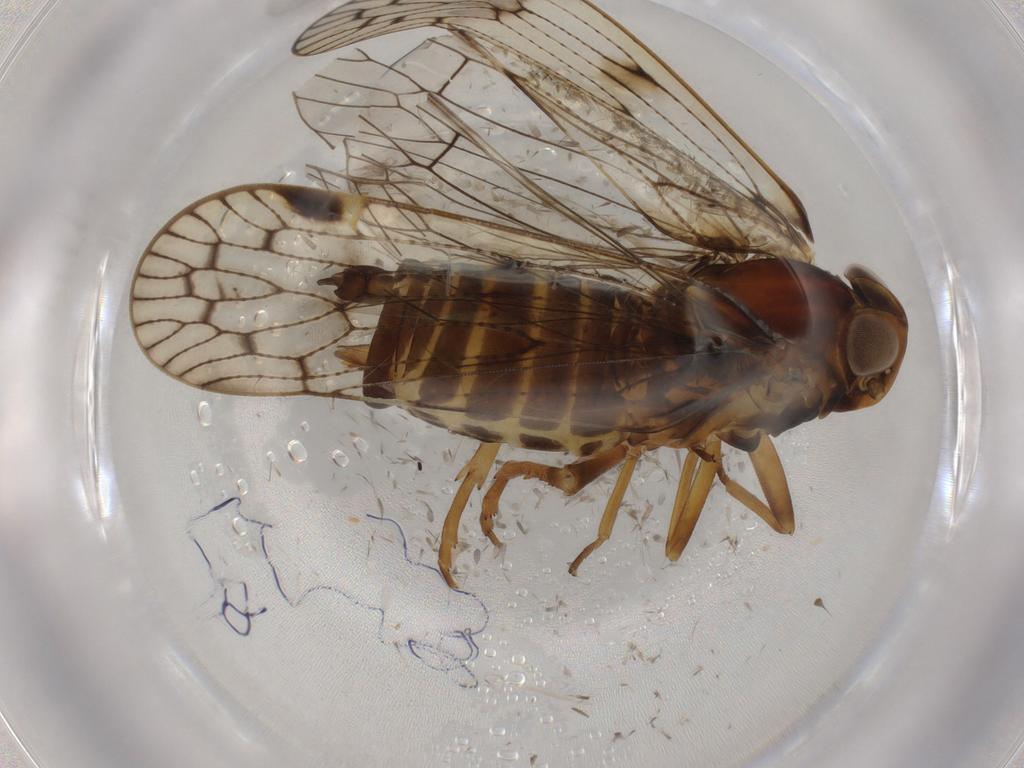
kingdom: Animalia
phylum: Arthropoda
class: Insecta
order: Hemiptera
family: Cixiidae
